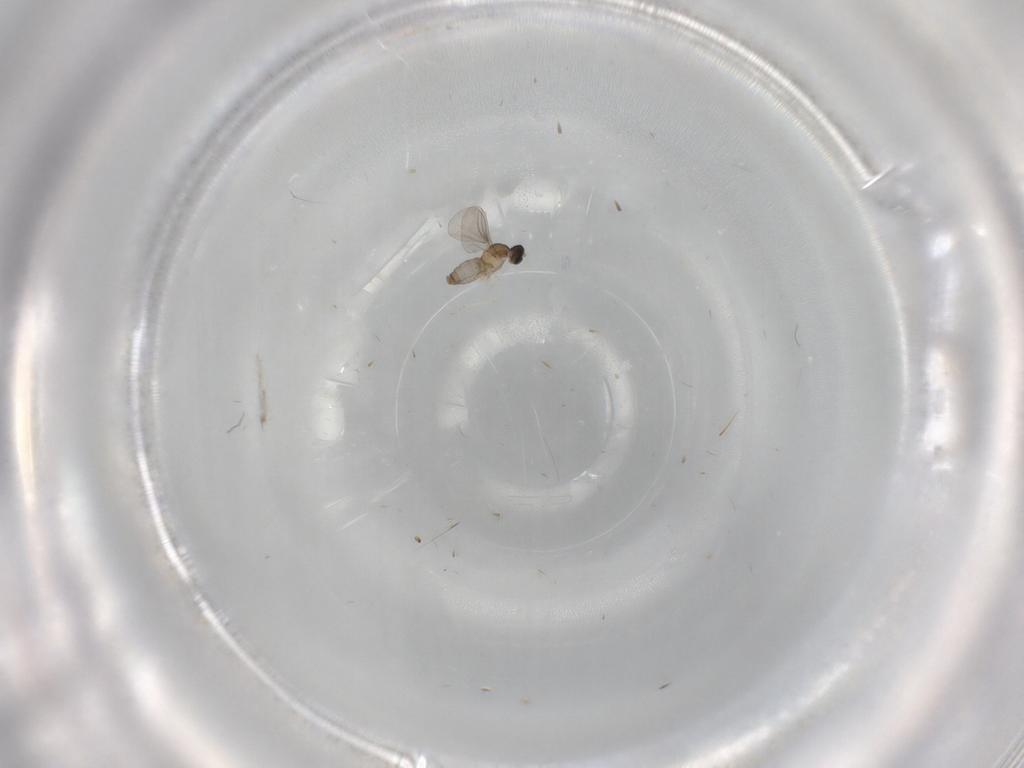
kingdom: Animalia
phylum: Arthropoda
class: Insecta
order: Diptera
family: Cecidomyiidae
